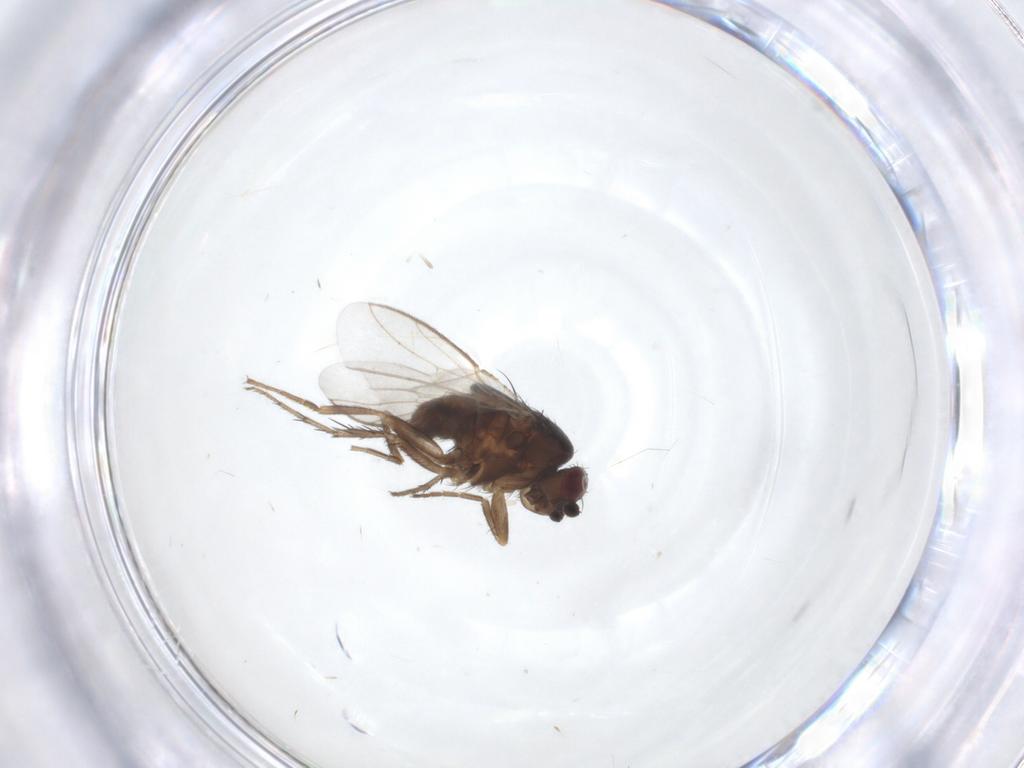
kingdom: Animalia
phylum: Arthropoda
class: Insecta
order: Diptera
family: Sphaeroceridae
